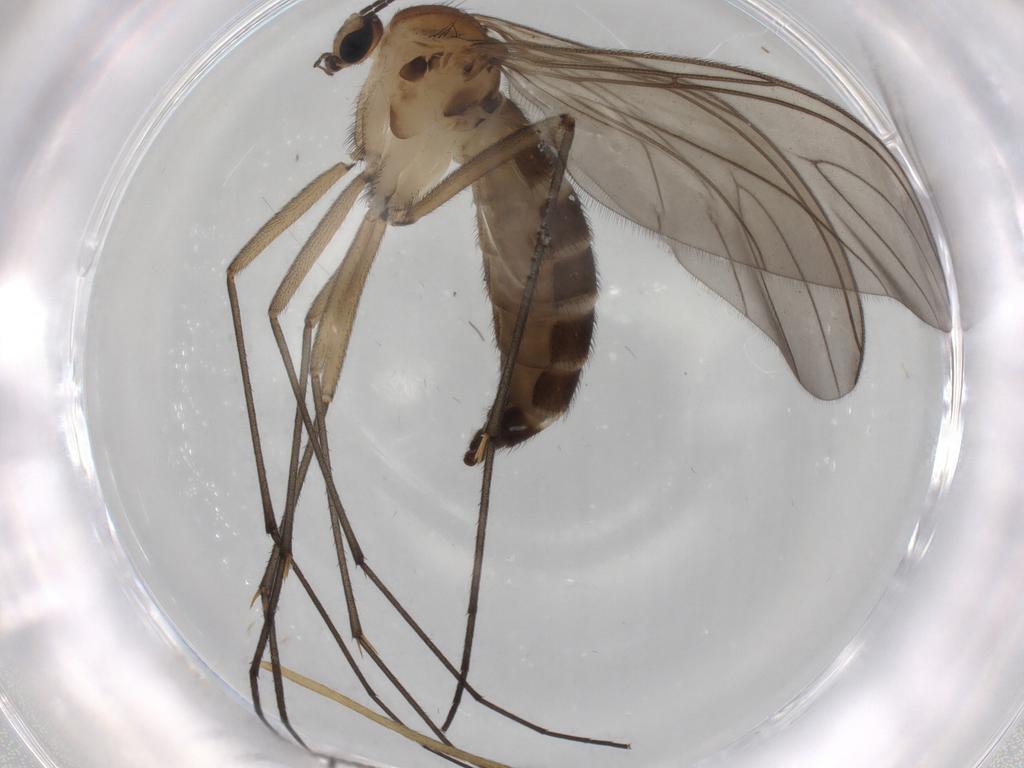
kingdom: Animalia
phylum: Arthropoda
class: Insecta
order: Diptera
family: Sciaridae
